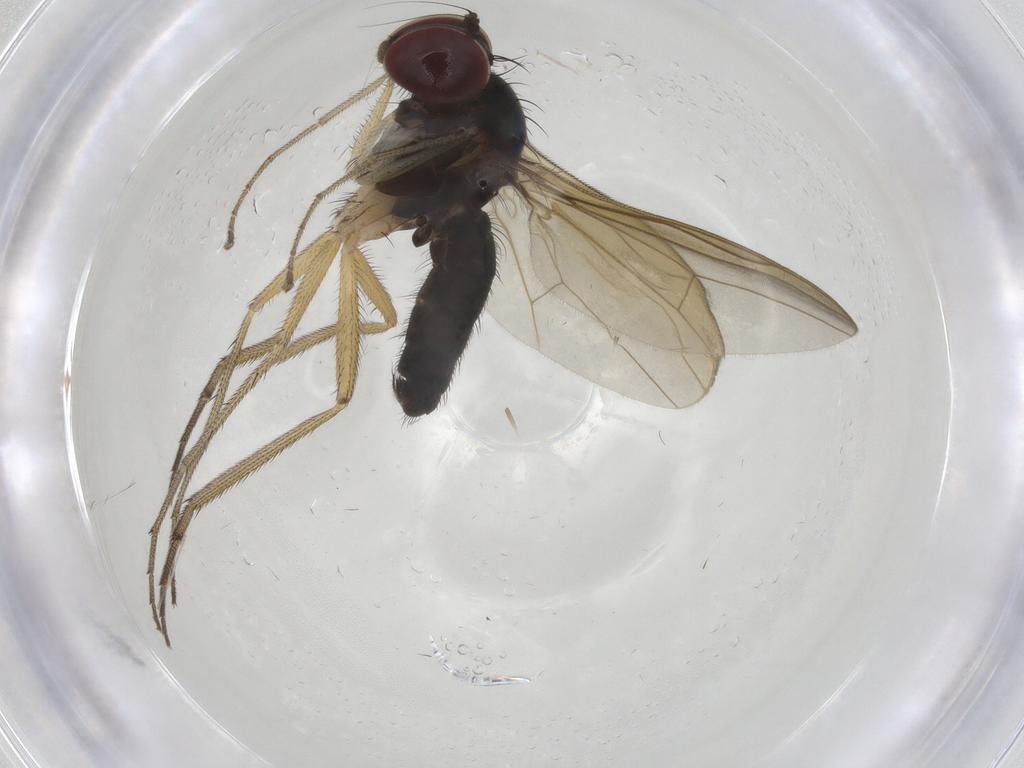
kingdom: Animalia
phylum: Arthropoda
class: Insecta
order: Diptera
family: Dolichopodidae
